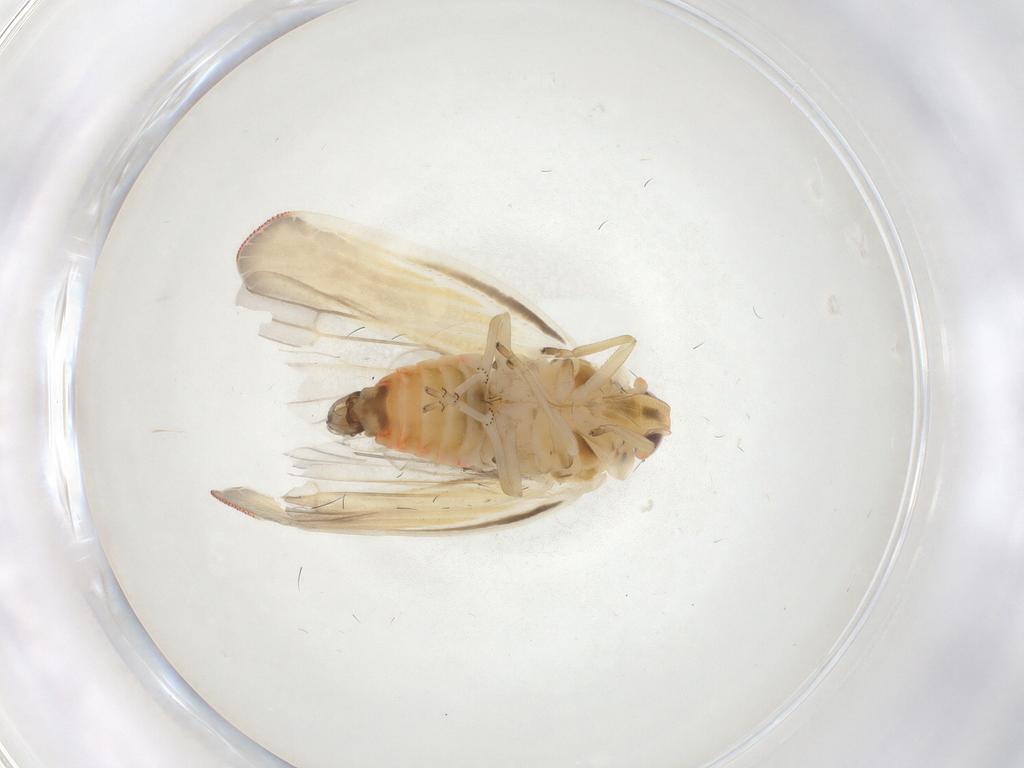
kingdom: Animalia
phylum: Arthropoda
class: Insecta
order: Hemiptera
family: Derbidae
